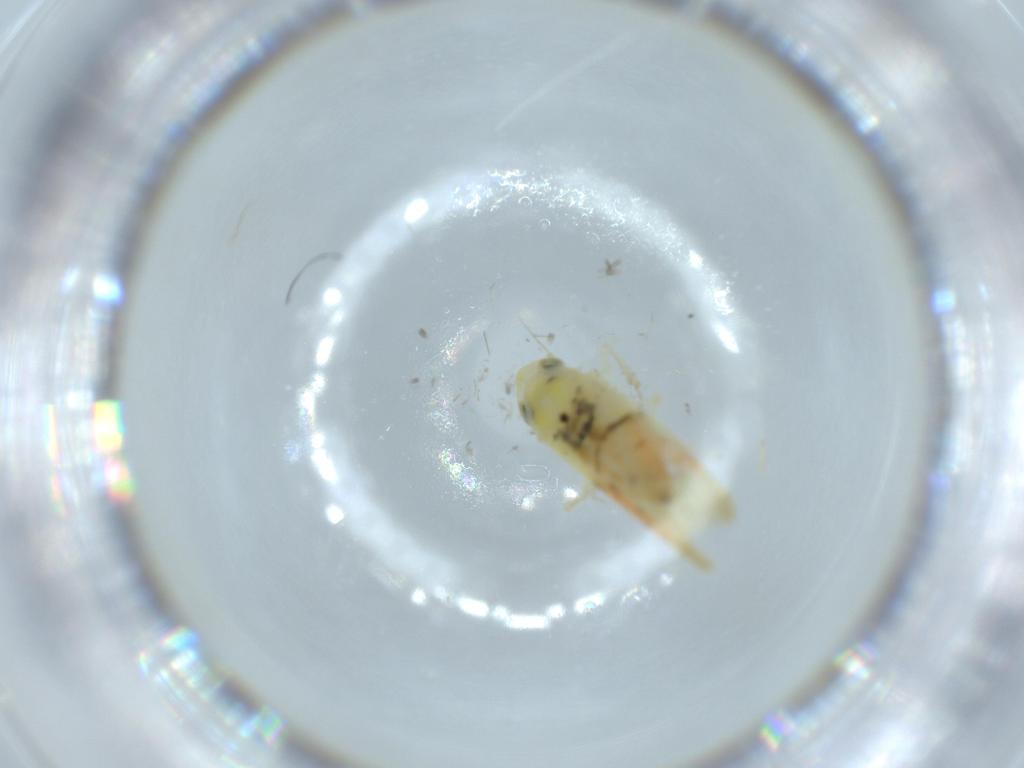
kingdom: Animalia
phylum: Arthropoda
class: Insecta
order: Hemiptera
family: Cicadellidae
